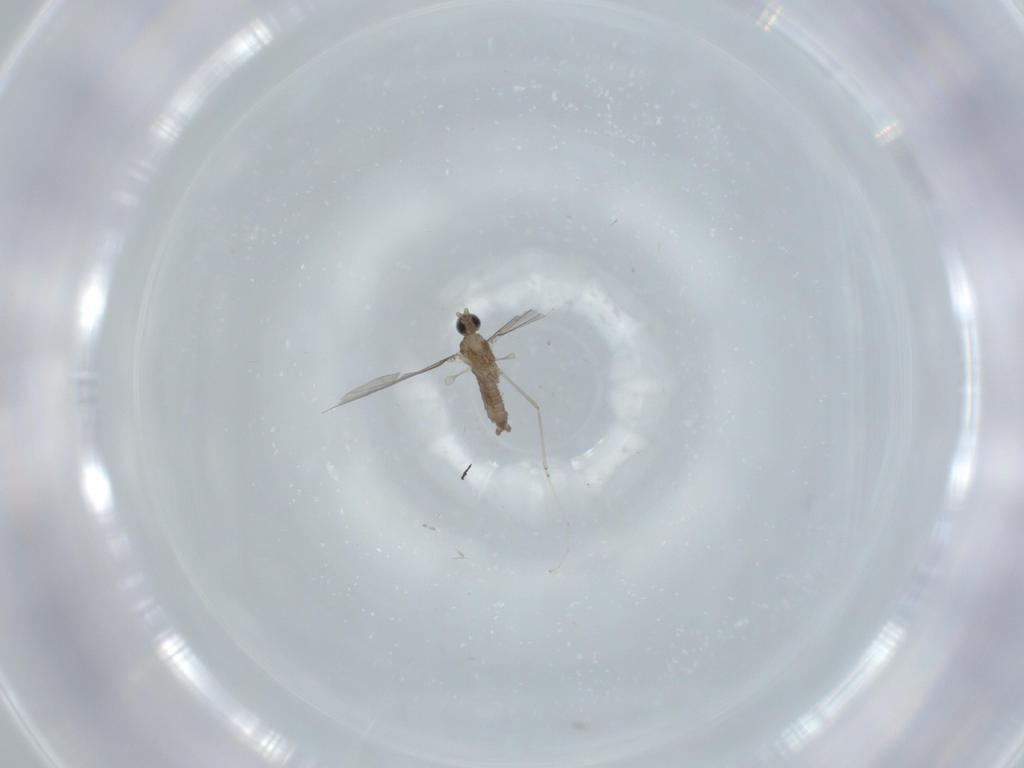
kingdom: Animalia
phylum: Arthropoda
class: Insecta
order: Diptera
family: Cecidomyiidae
